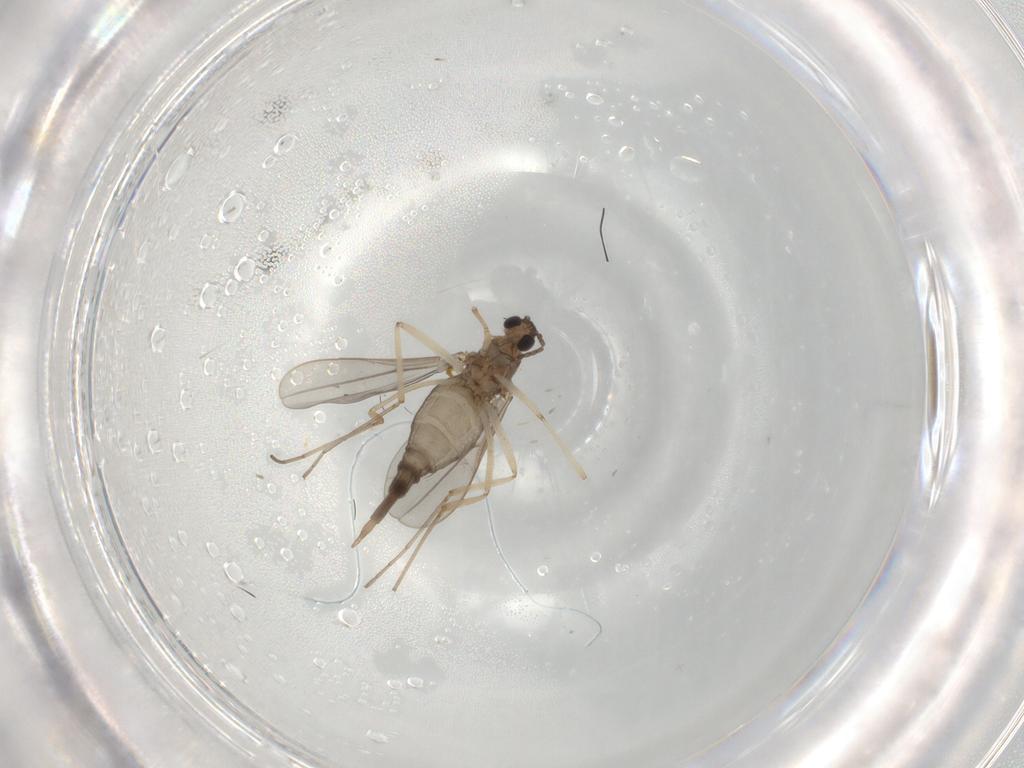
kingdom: Animalia
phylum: Arthropoda
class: Insecta
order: Diptera
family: Cecidomyiidae
